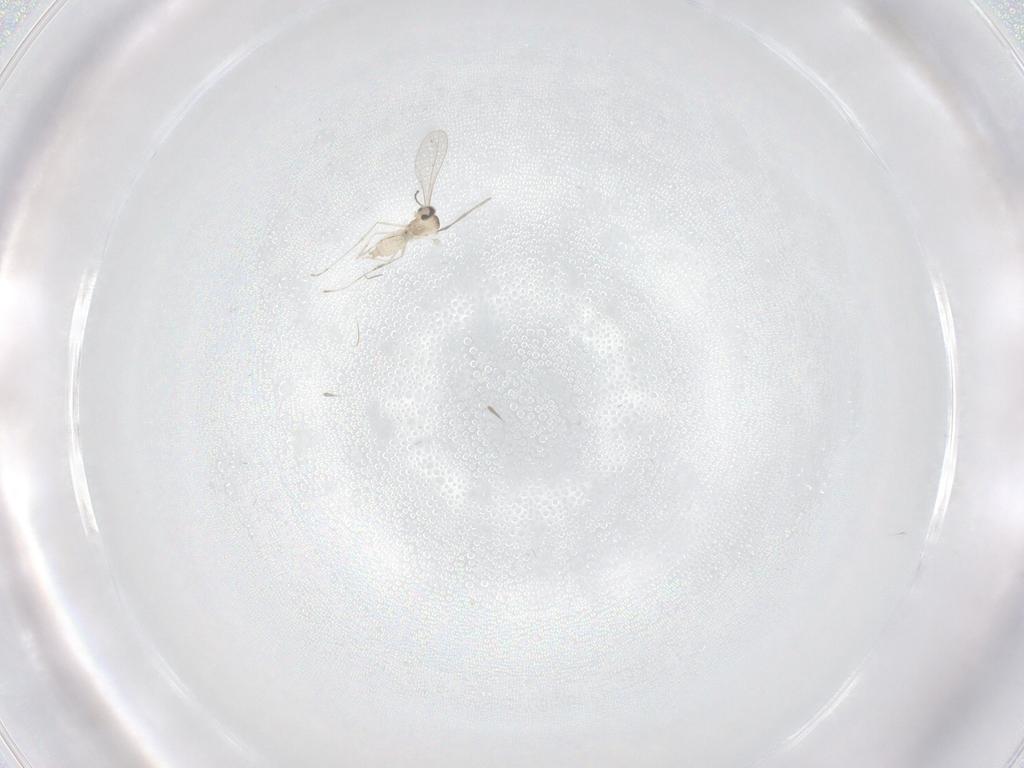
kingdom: Animalia
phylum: Arthropoda
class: Insecta
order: Diptera
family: Cecidomyiidae
